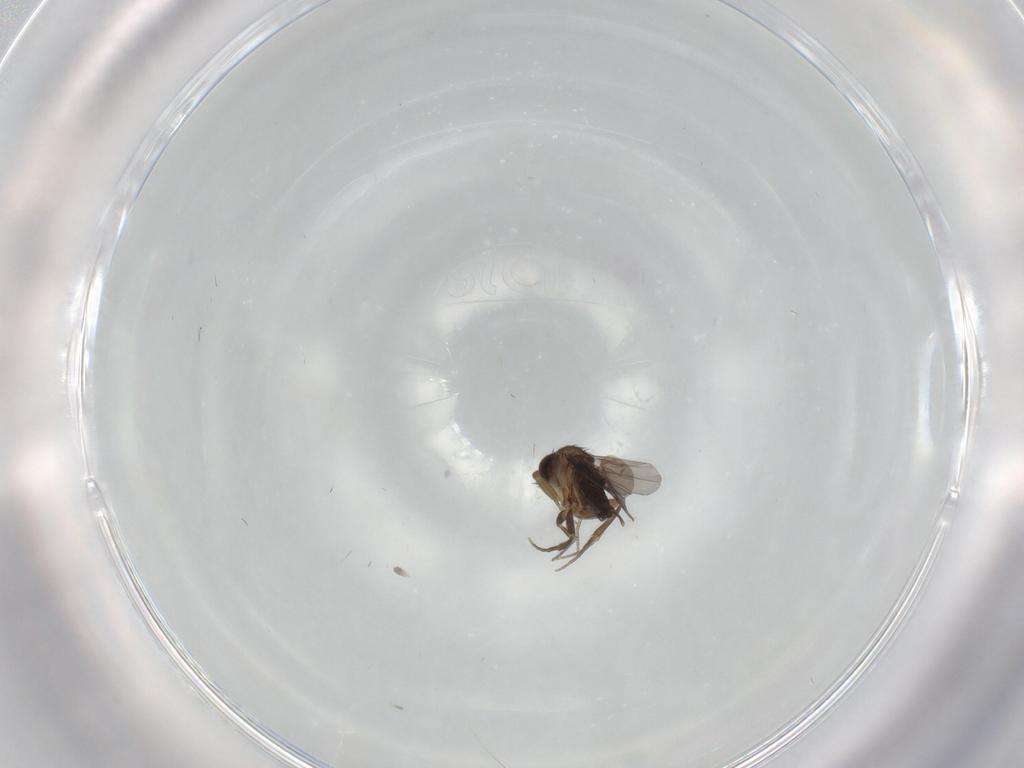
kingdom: Animalia
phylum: Arthropoda
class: Insecta
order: Diptera
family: Phoridae
